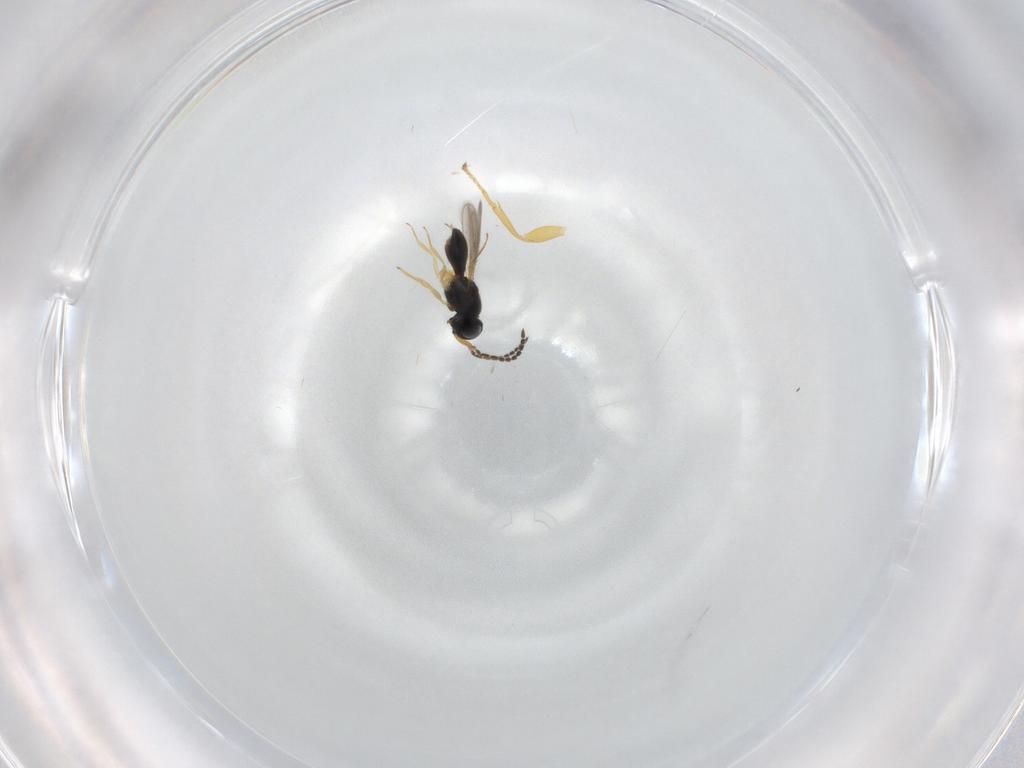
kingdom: Animalia
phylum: Arthropoda
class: Insecta
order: Hymenoptera
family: Scelionidae
